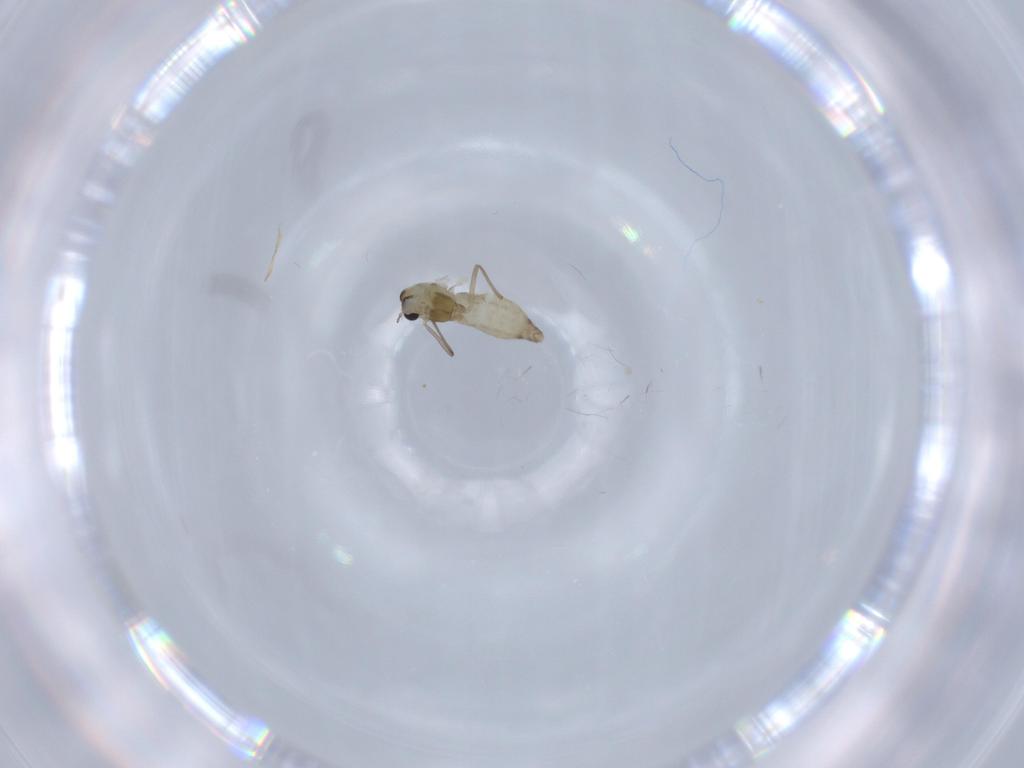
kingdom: Animalia
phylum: Arthropoda
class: Insecta
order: Diptera
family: Chironomidae
